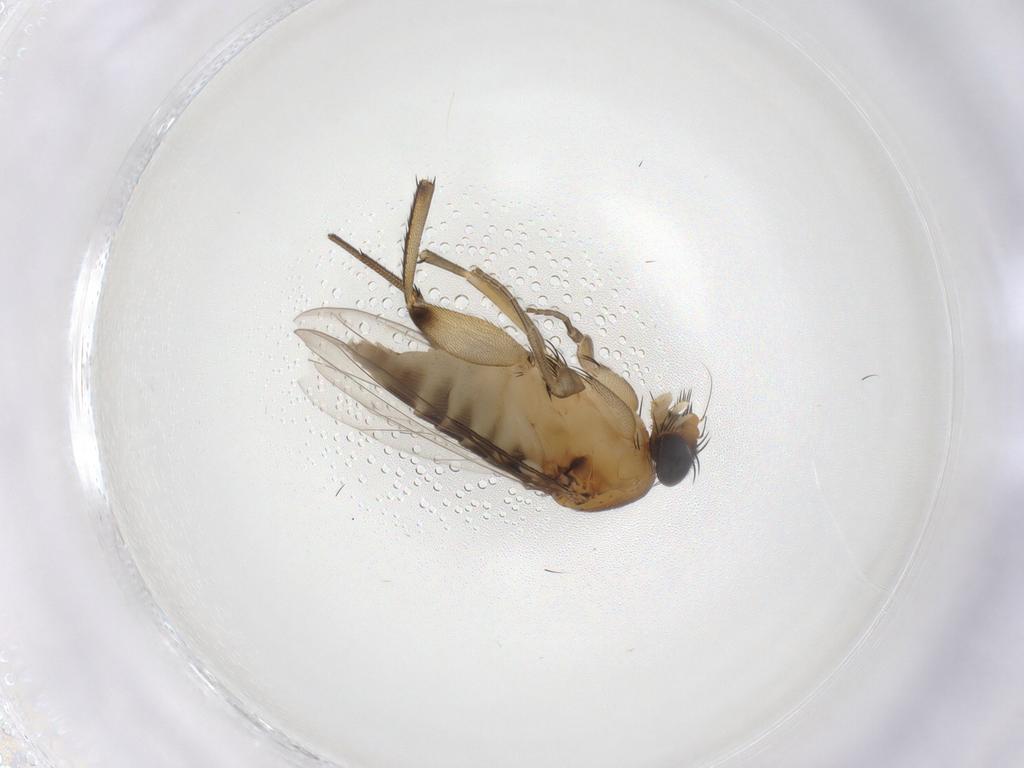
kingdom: Animalia
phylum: Arthropoda
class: Insecta
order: Diptera
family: Phoridae
